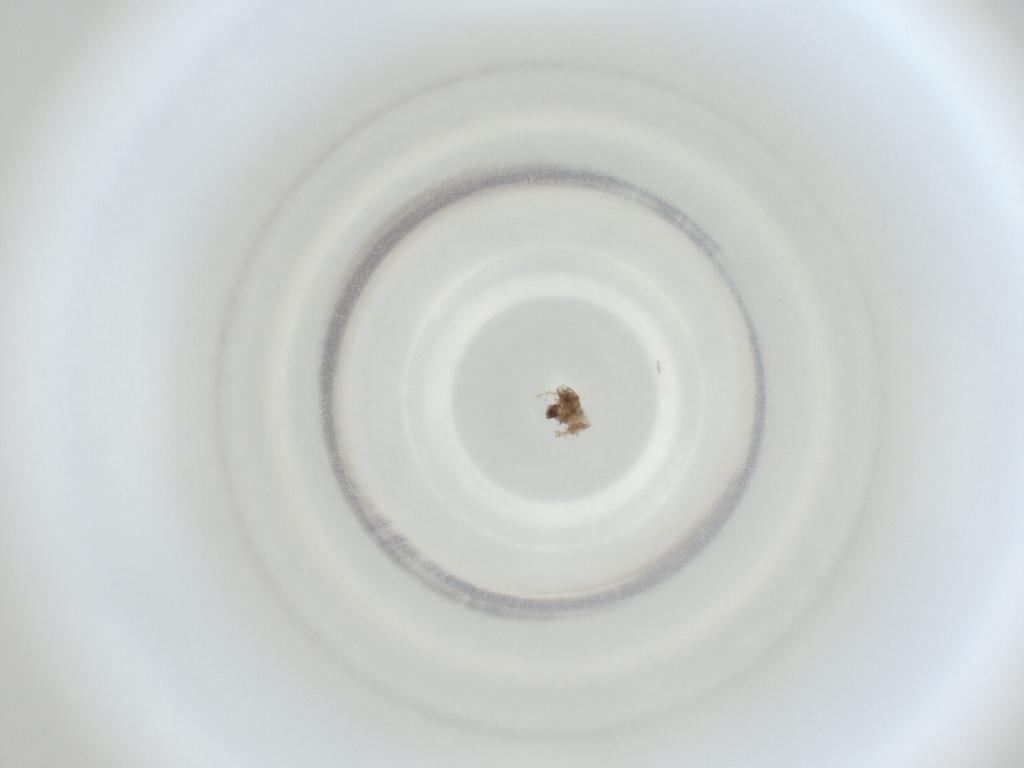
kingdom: Animalia
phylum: Arthropoda
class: Insecta
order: Diptera
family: Cecidomyiidae
